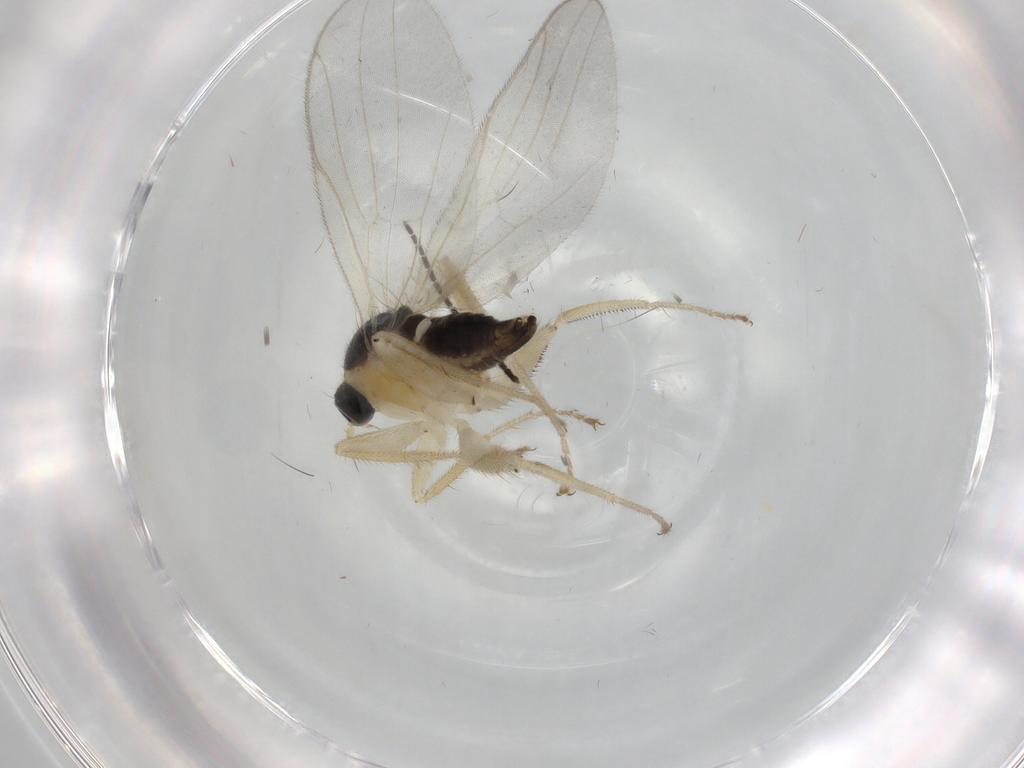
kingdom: Animalia
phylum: Arthropoda
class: Insecta
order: Diptera
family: Hybotidae
